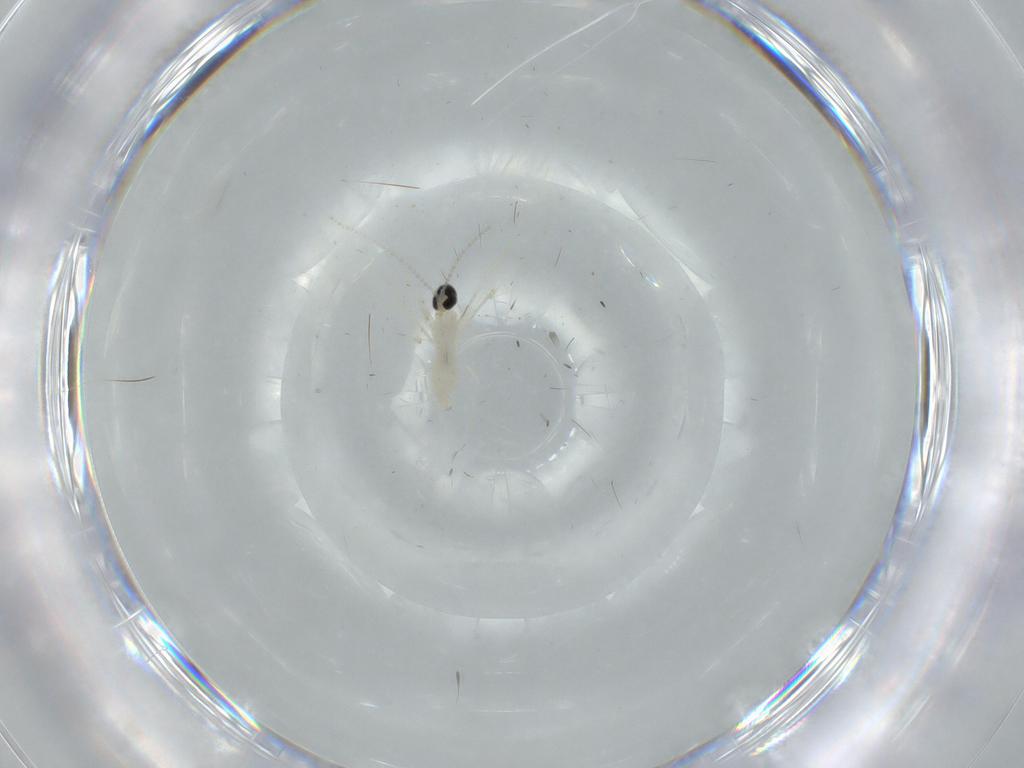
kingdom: Animalia
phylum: Arthropoda
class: Insecta
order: Diptera
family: Cecidomyiidae
